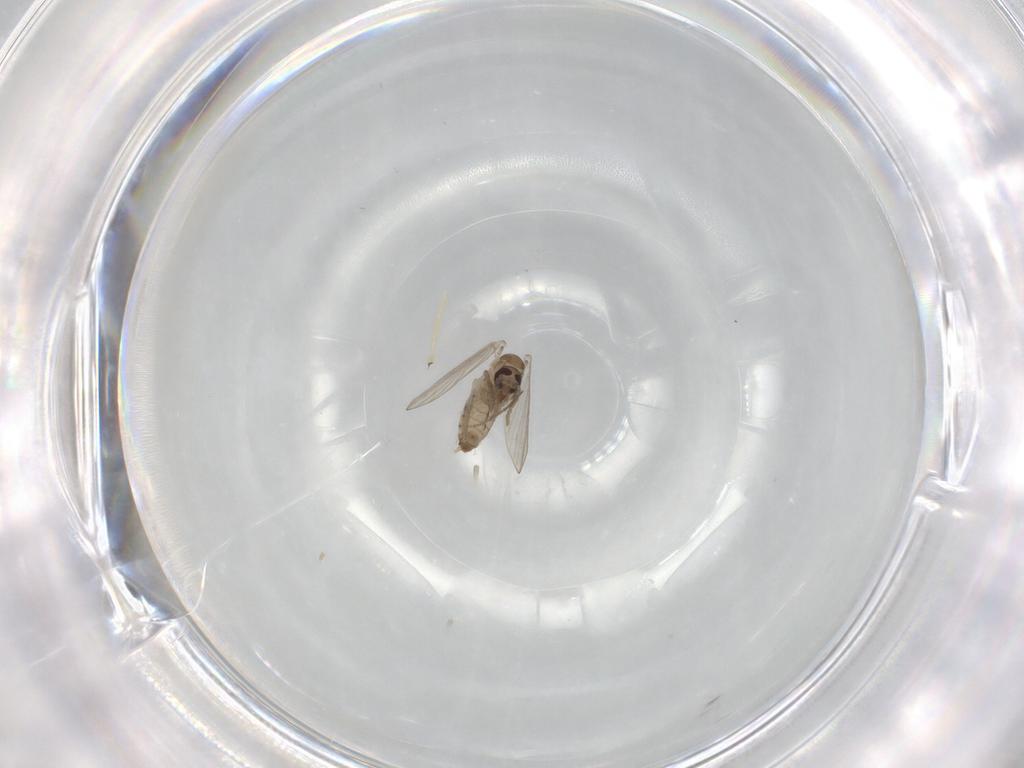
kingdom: Animalia
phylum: Arthropoda
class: Insecta
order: Diptera
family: Psychodidae
